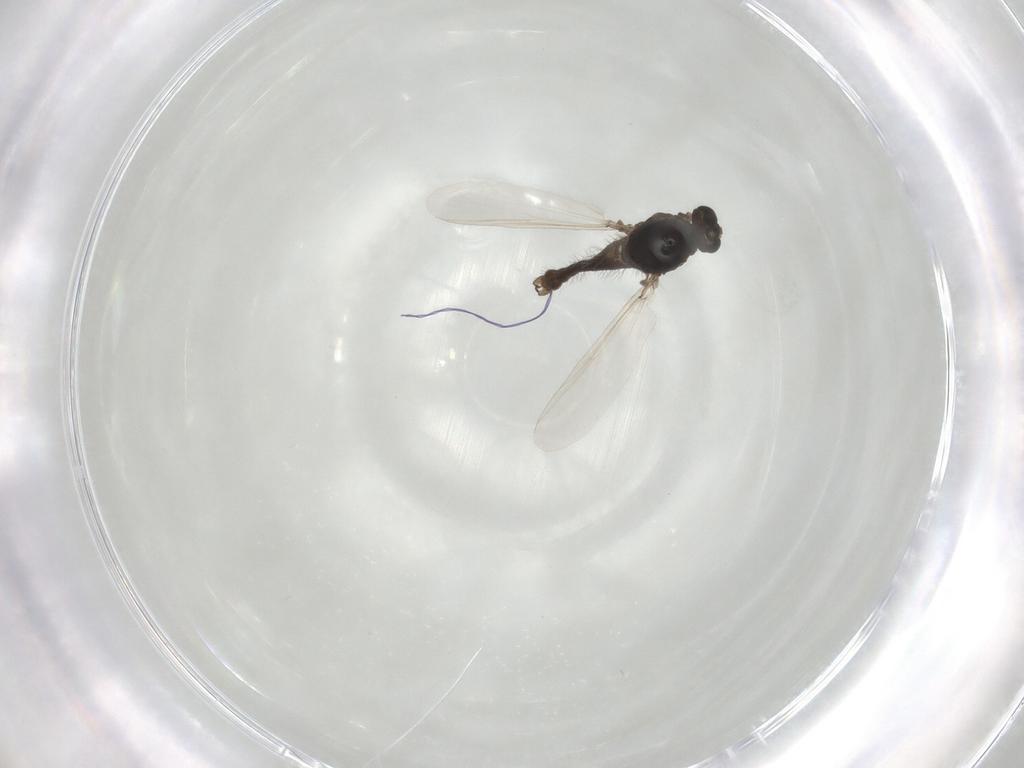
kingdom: Animalia
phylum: Arthropoda
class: Insecta
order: Diptera
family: Chironomidae
